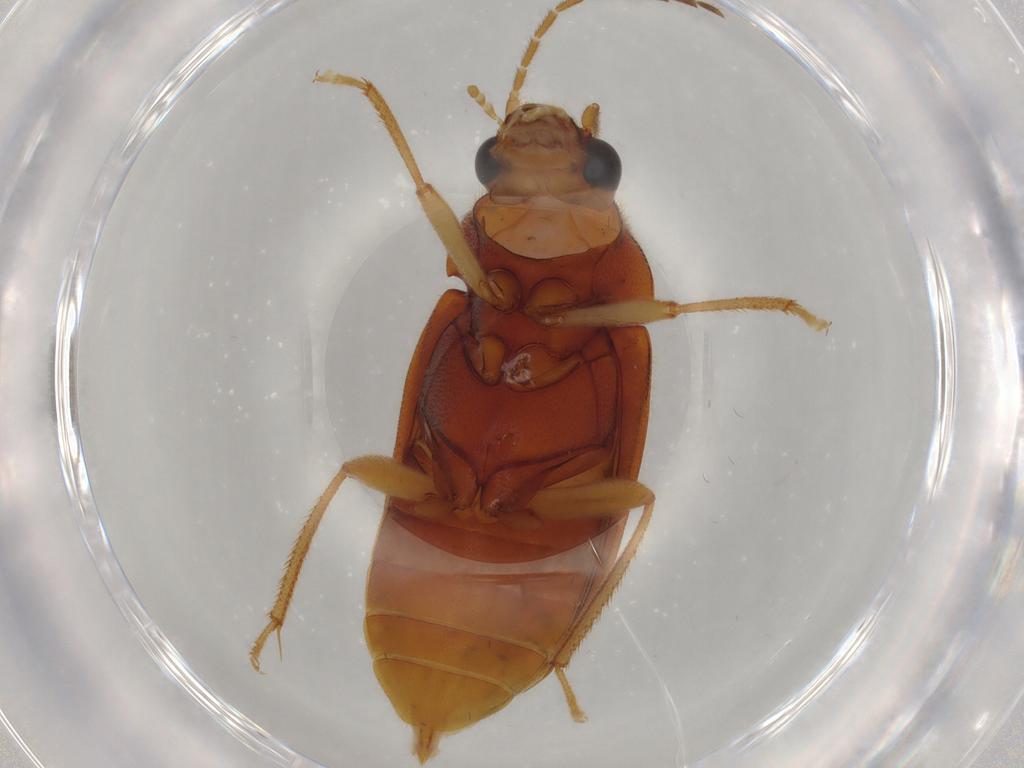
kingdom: Animalia
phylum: Arthropoda
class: Insecta
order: Coleoptera
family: Ptilodactylidae
